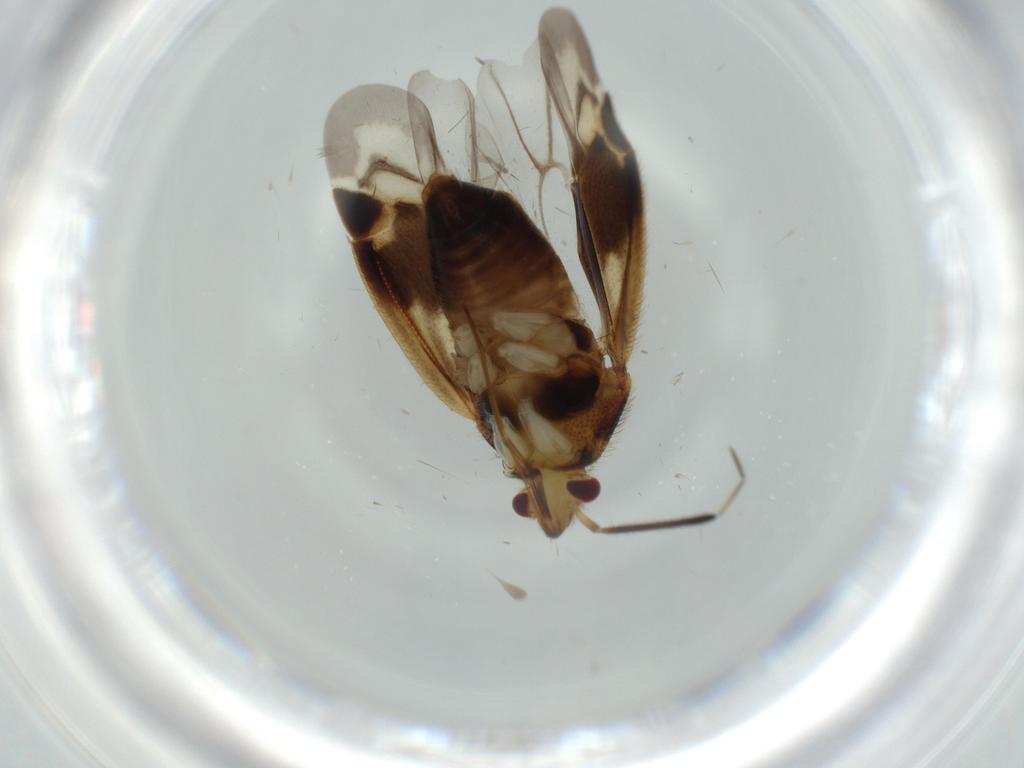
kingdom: Animalia
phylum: Arthropoda
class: Insecta
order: Hemiptera
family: Miridae
